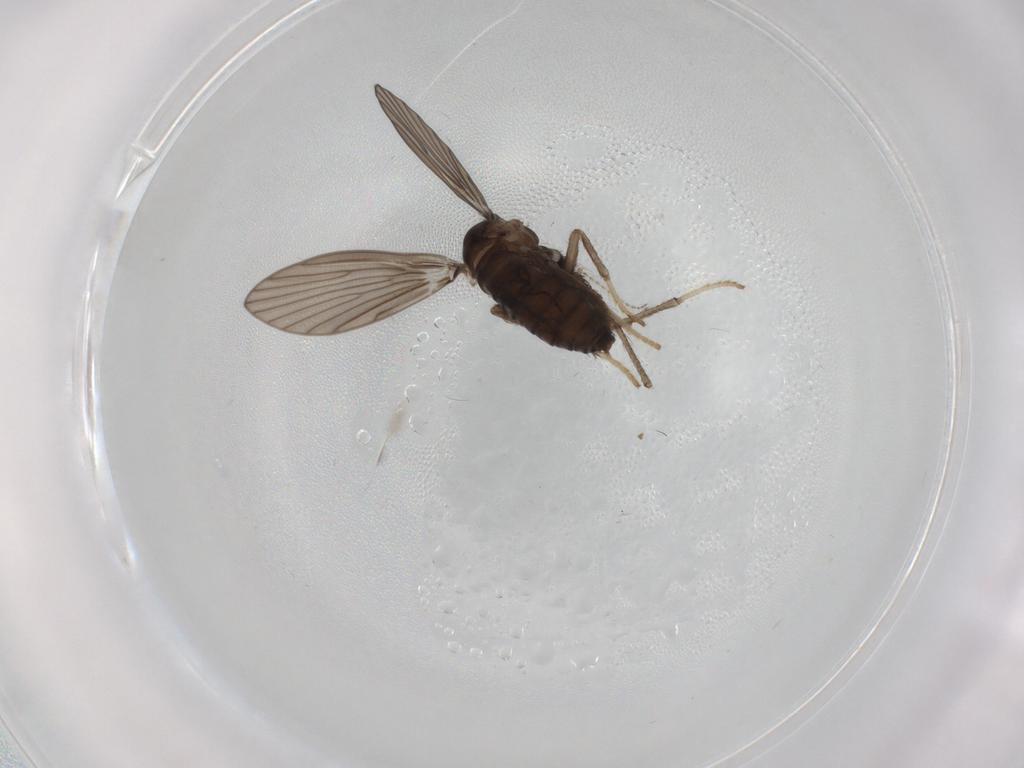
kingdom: Animalia
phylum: Arthropoda
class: Insecta
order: Diptera
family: Psychodidae
